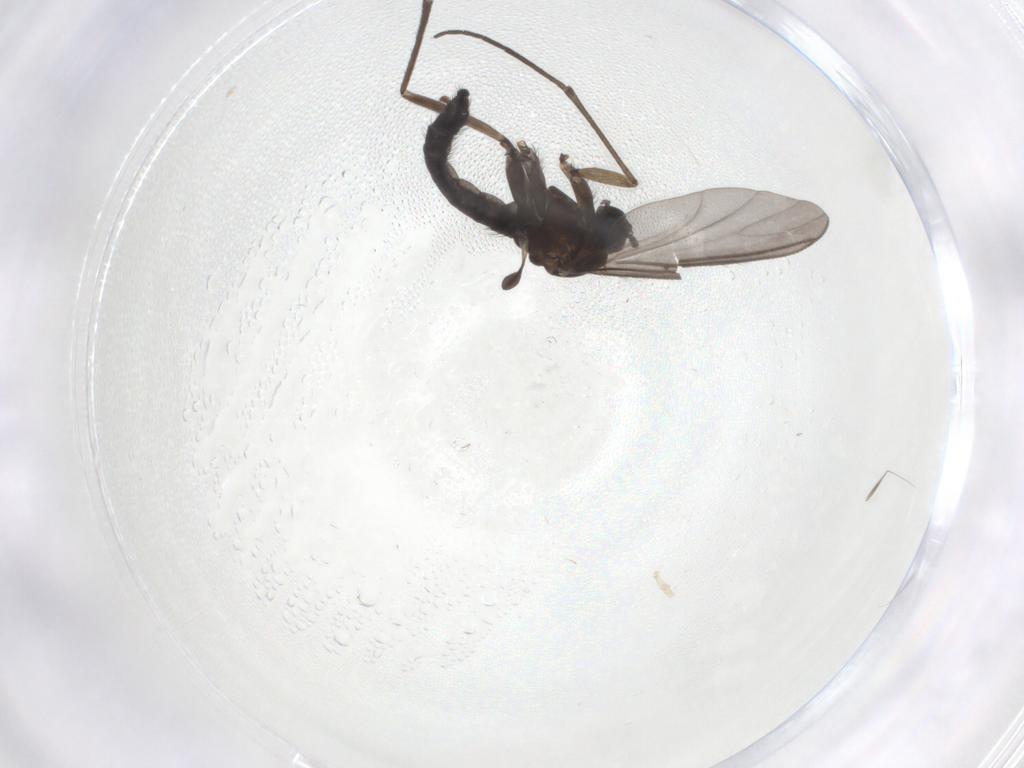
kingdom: Animalia
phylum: Arthropoda
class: Insecta
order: Diptera
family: Sciaridae
